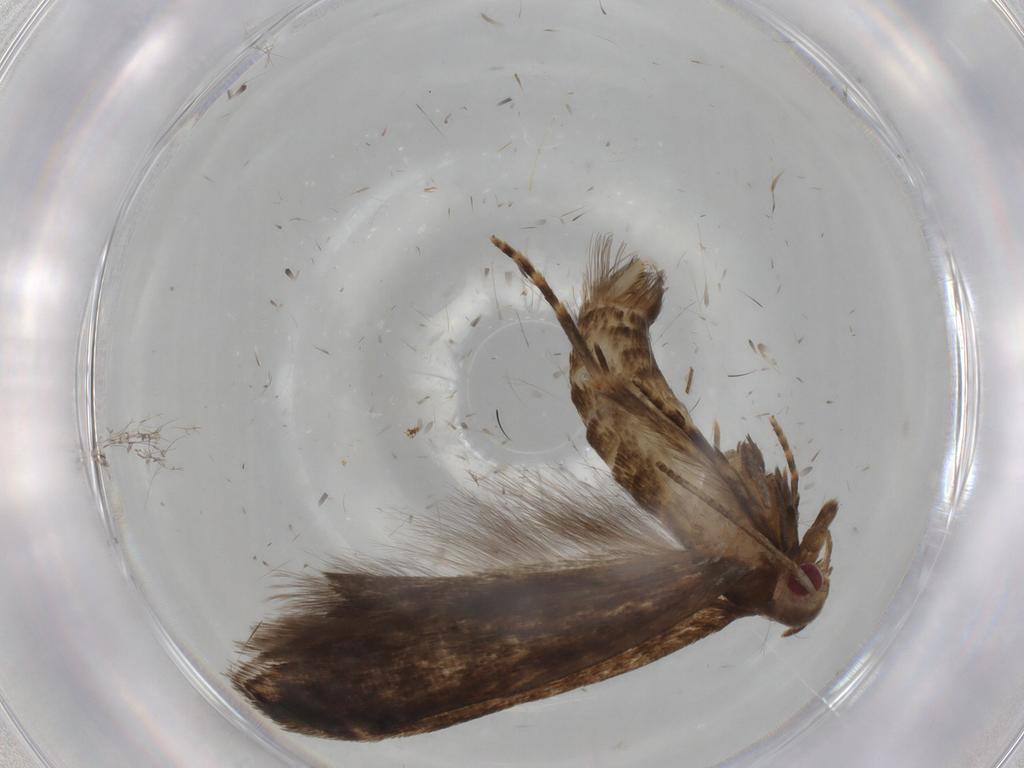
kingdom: Animalia
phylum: Arthropoda
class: Insecta
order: Lepidoptera
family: Gelechiidae
